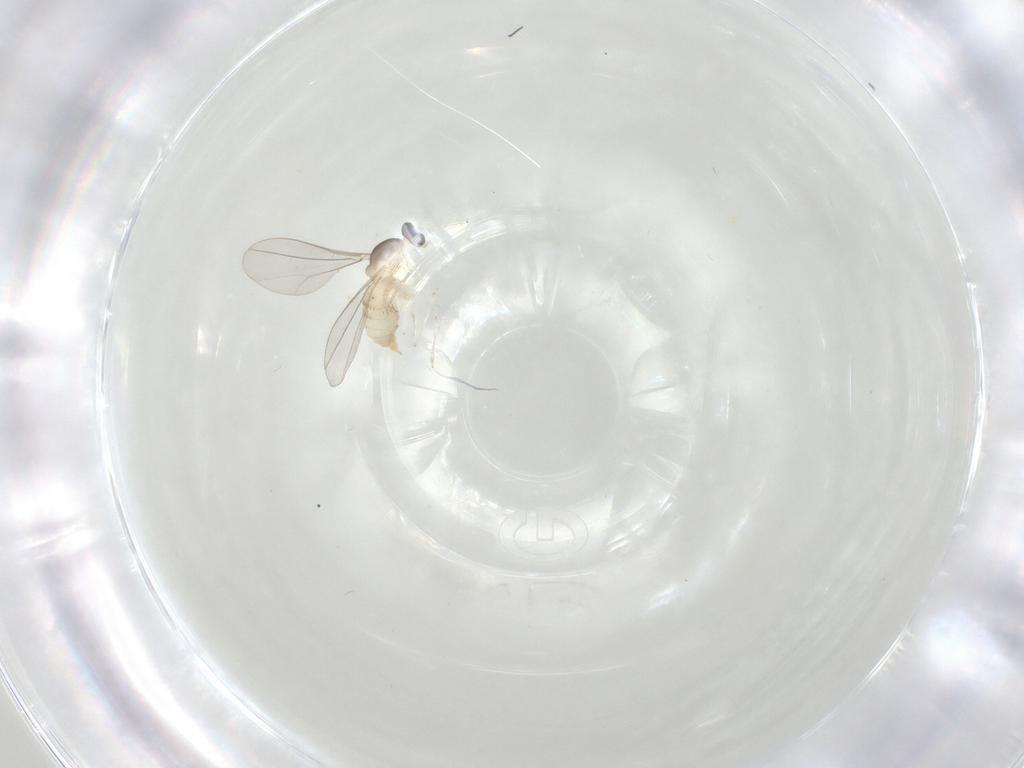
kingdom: Animalia
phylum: Arthropoda
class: Insecta
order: Diptera
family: Cecidomyiidae
